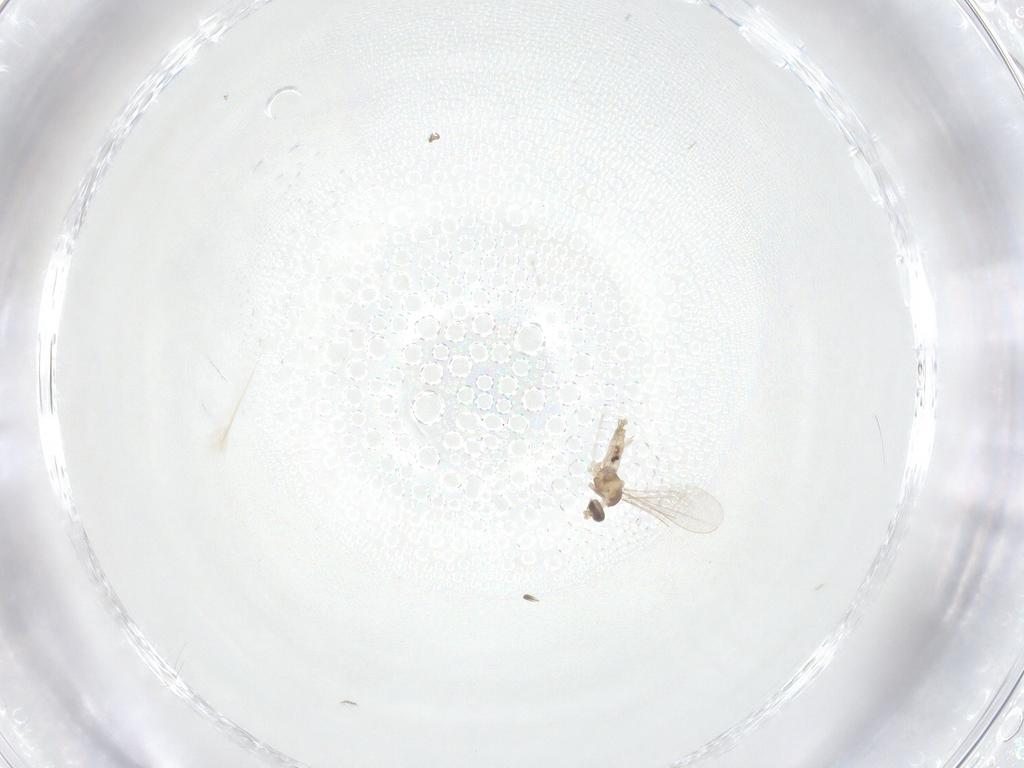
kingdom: Animalia
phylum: Arthropoda
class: Insecta
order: Diptera
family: Cecidomyiidae
